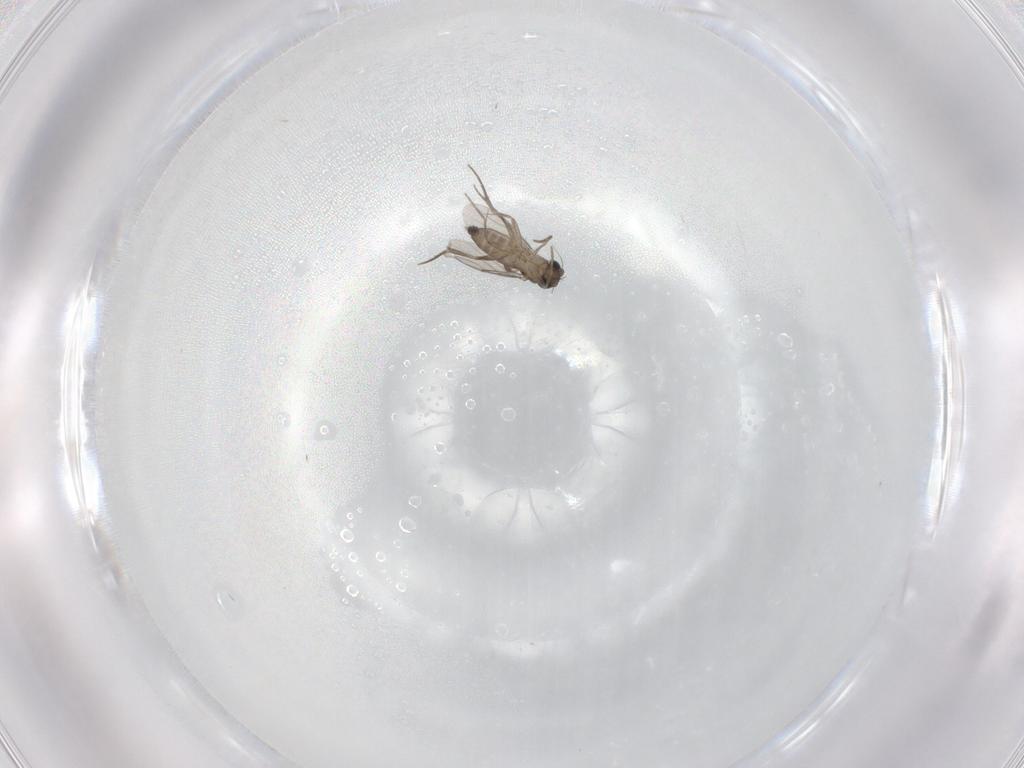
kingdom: Animalia
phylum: Arthropoda
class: Insecta
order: Diptera
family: Phoridae
